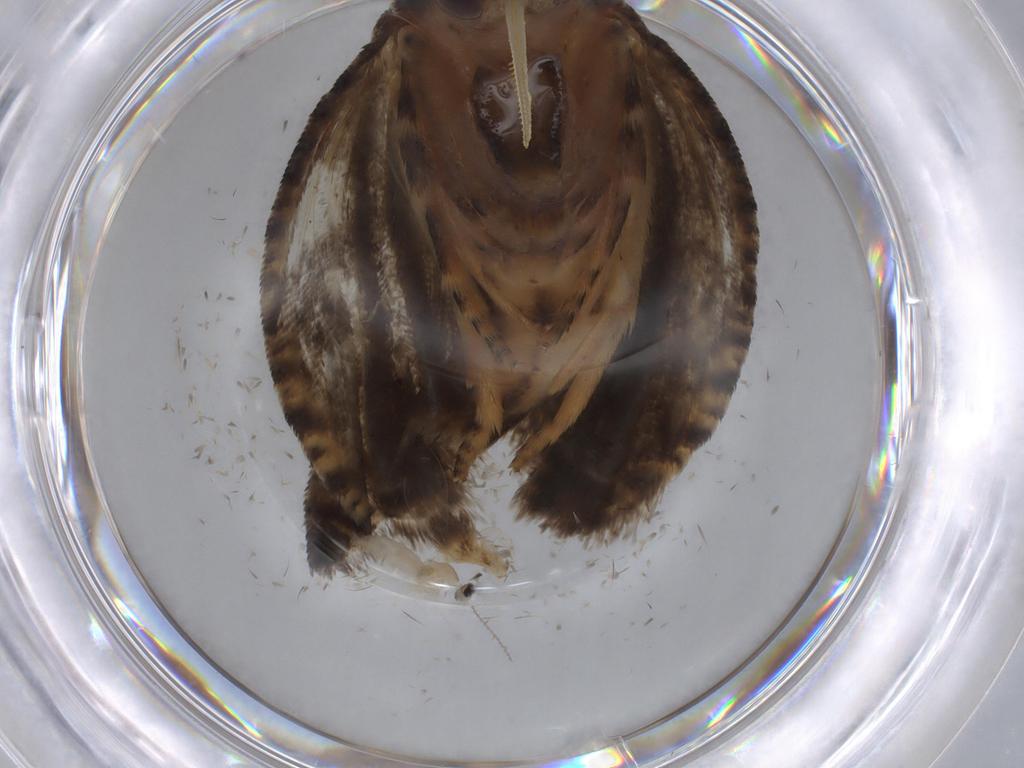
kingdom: Animalia
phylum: Arthropoda
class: Insecta
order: Lepidoptera
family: Tortricidae
